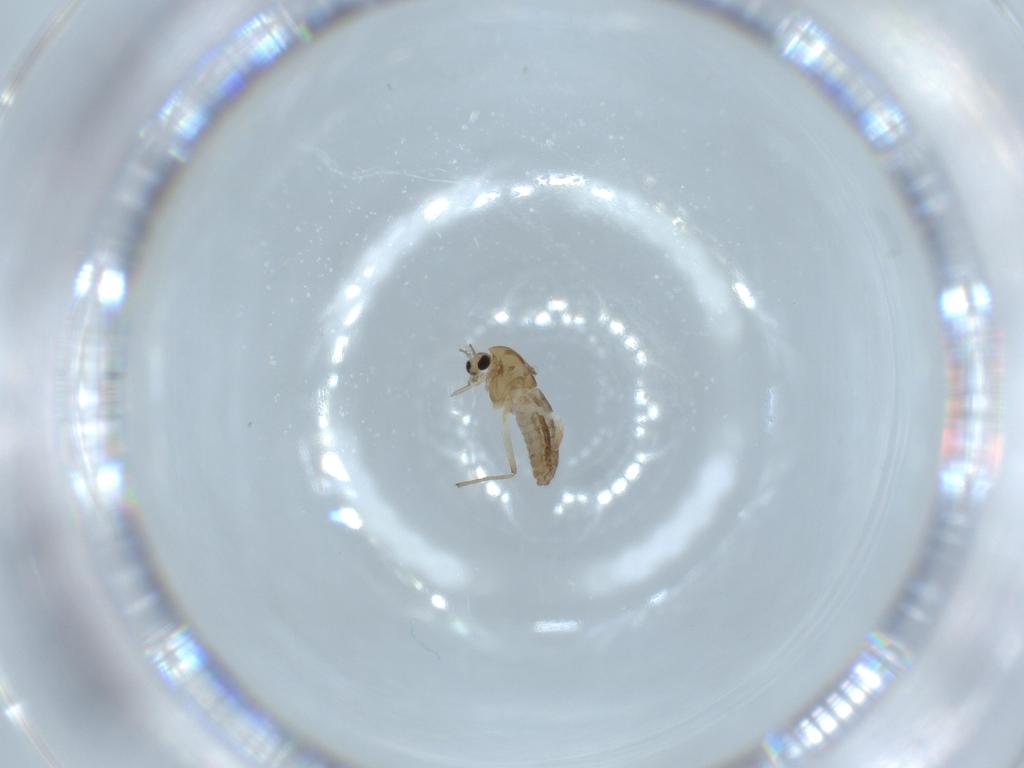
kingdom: Animalia
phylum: Arthropoda
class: Insecta
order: Diptera
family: Chironomidae
